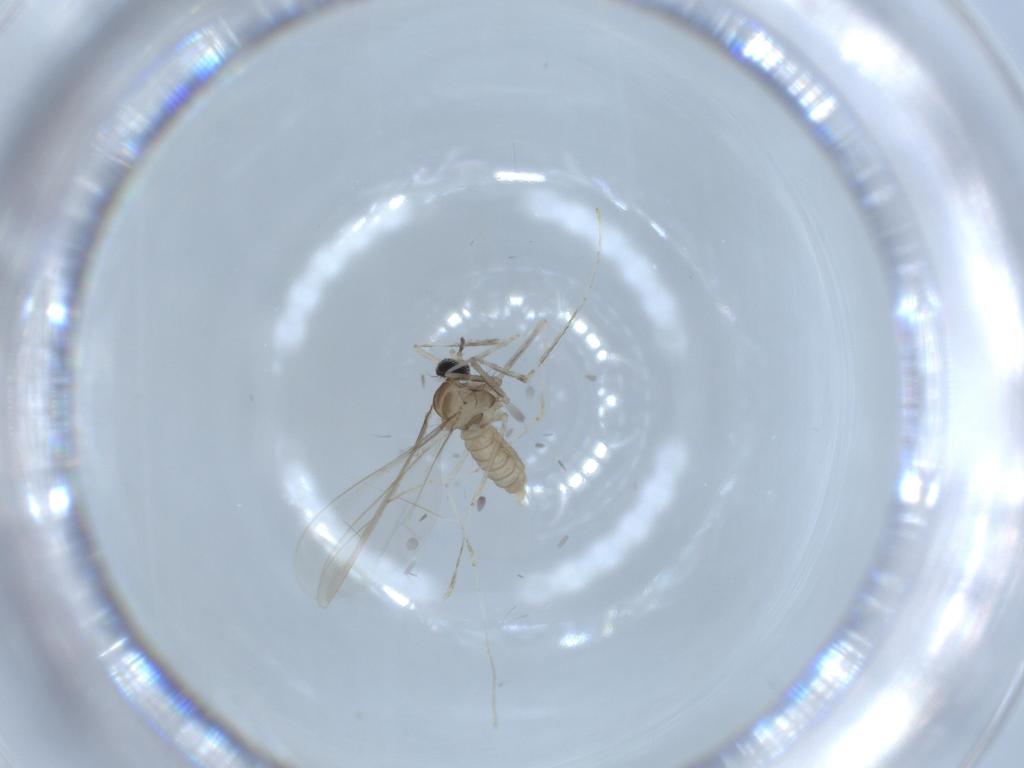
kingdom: Animalia
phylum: Arthropoda
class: Insecta
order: Diptera
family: Cecidomyiidae
